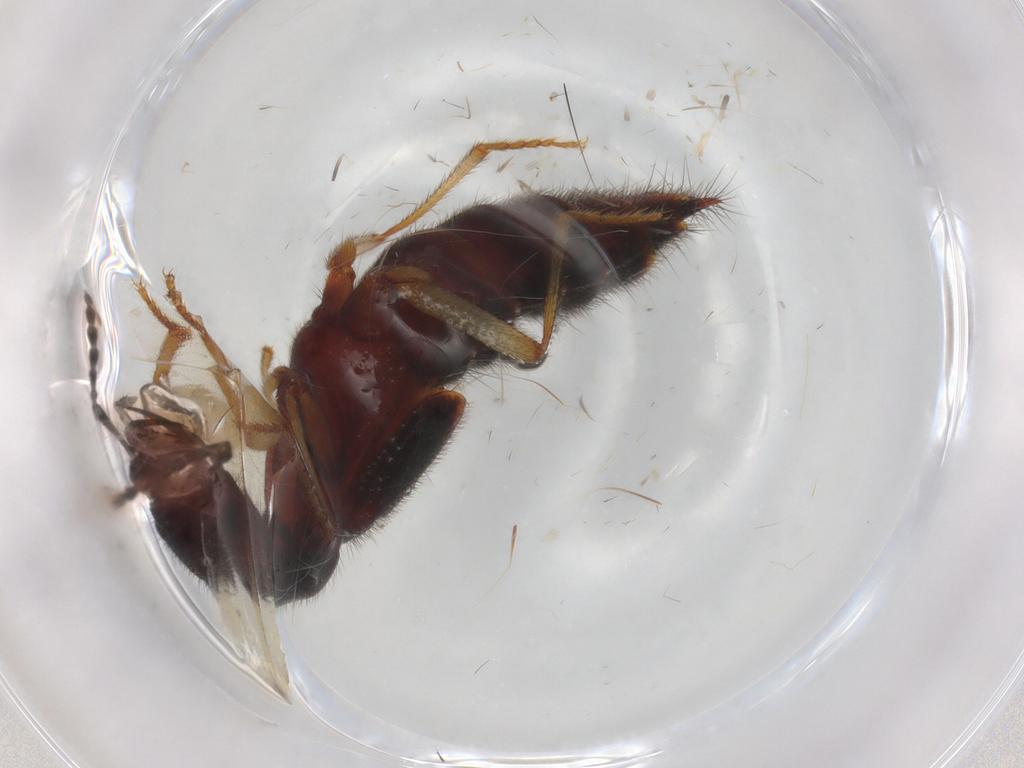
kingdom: Animalia
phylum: Arthropoda
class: Insecta
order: Coleoptera
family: Staphylinidae
